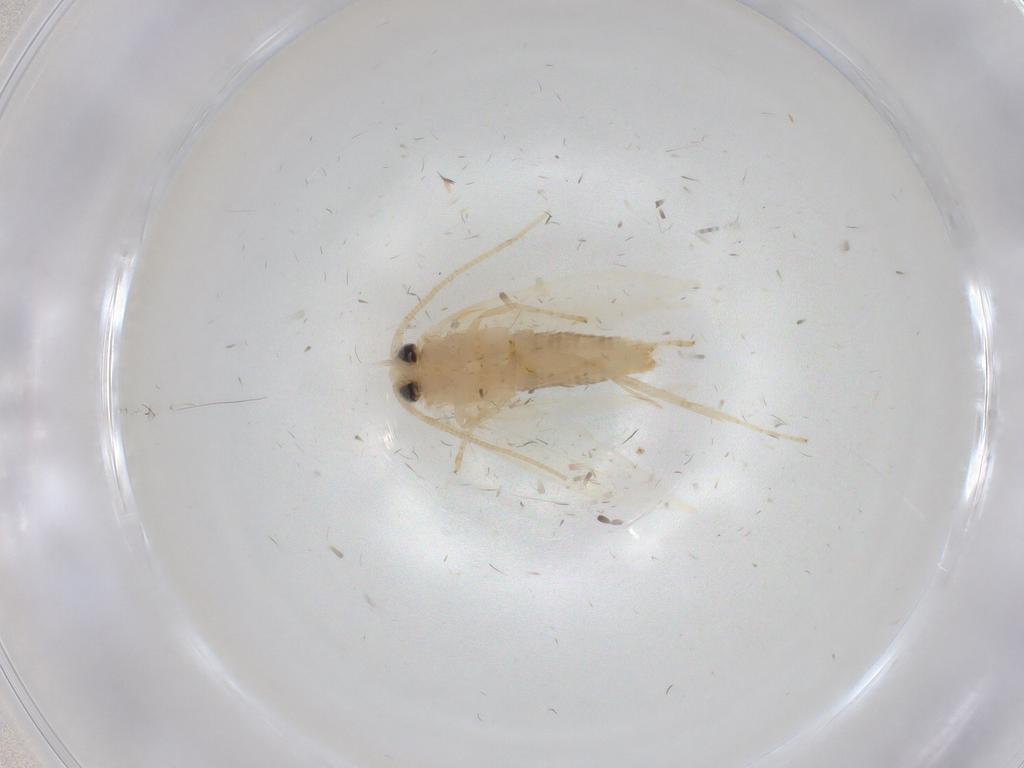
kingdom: Animalia
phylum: Arthropoda
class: Insecta
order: Lepidoptera
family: Opostegidae
